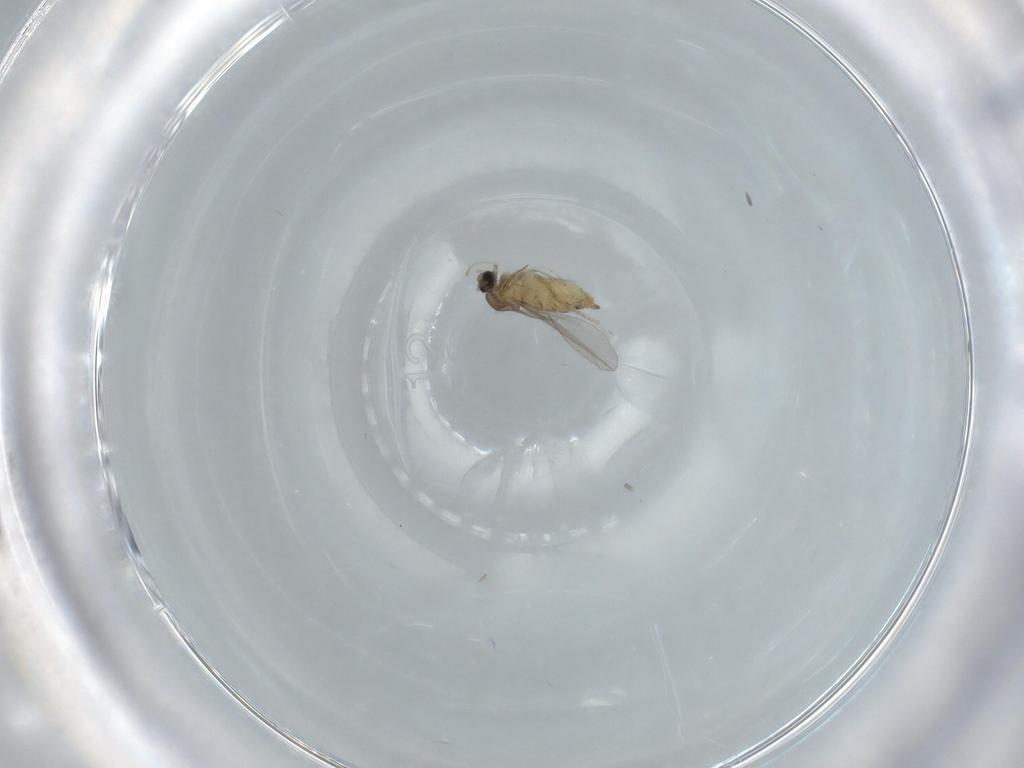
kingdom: Animalia
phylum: Arthropoda
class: Insecta
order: Diptera
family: Cecidomyiidae
